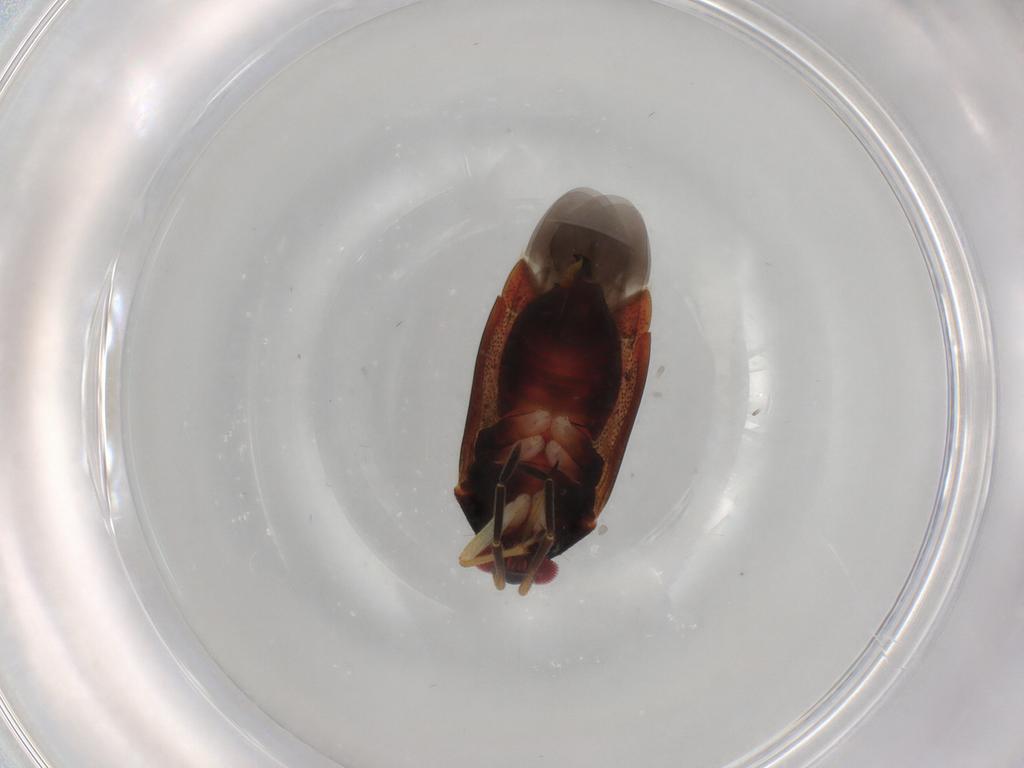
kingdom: Animalia
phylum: Arthropoda
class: Insecta
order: Hemiptera
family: Miridae
